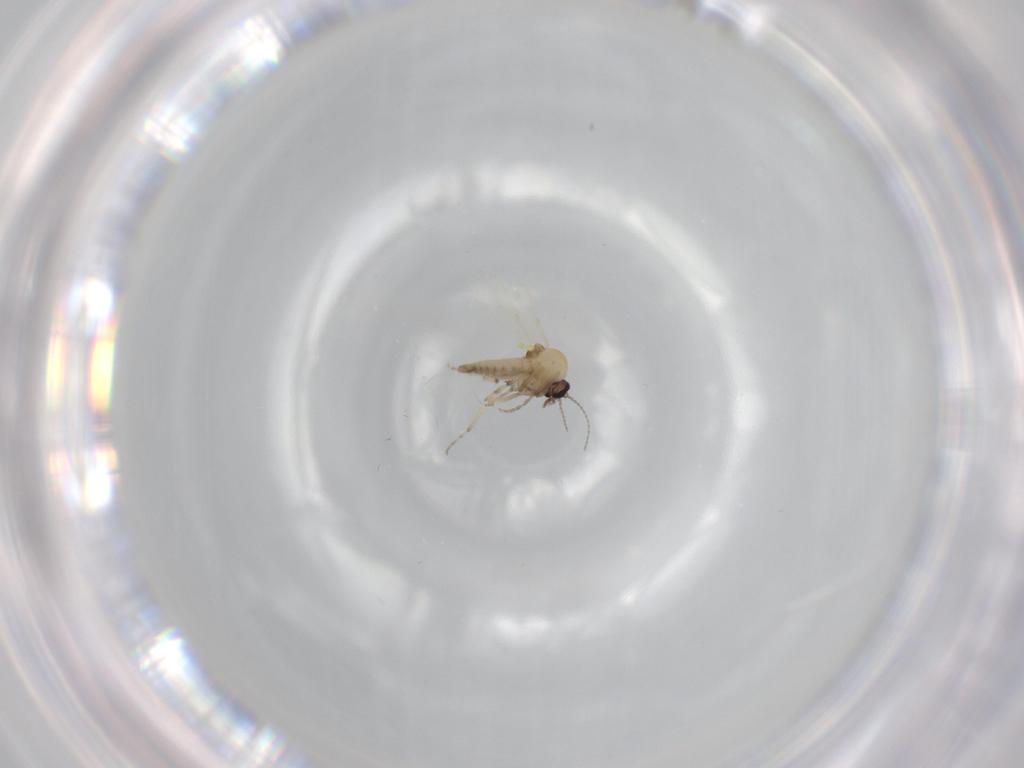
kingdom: Animalia
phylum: Arthropoda
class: Insecta
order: Diptera
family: Ceratopogonidae
